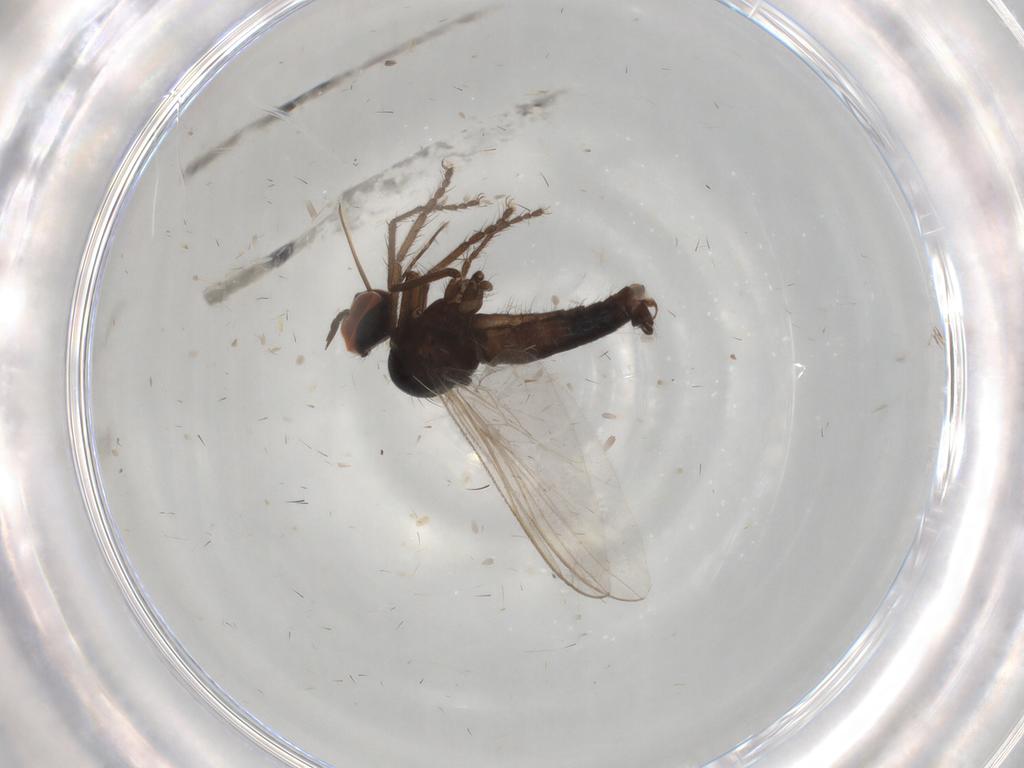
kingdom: Animalia
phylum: Arthropoda
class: Insecta
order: Diptera
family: Empididae
